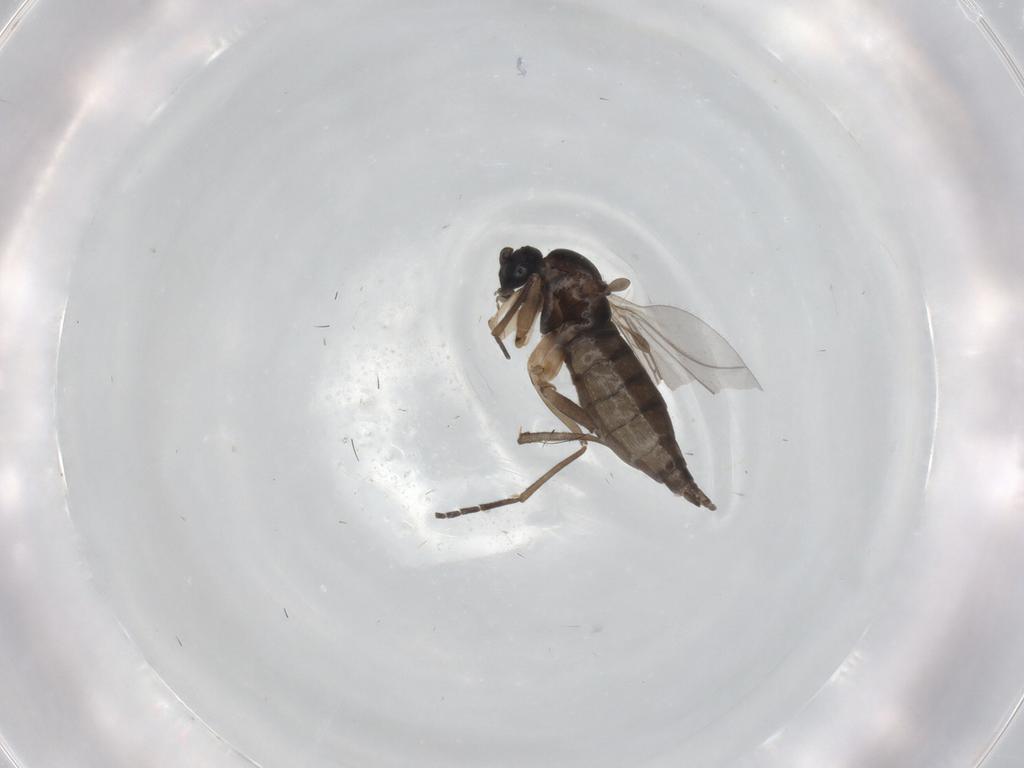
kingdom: Animalia
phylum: Arthropoda
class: Insecta
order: Diptera
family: Sciaridae
